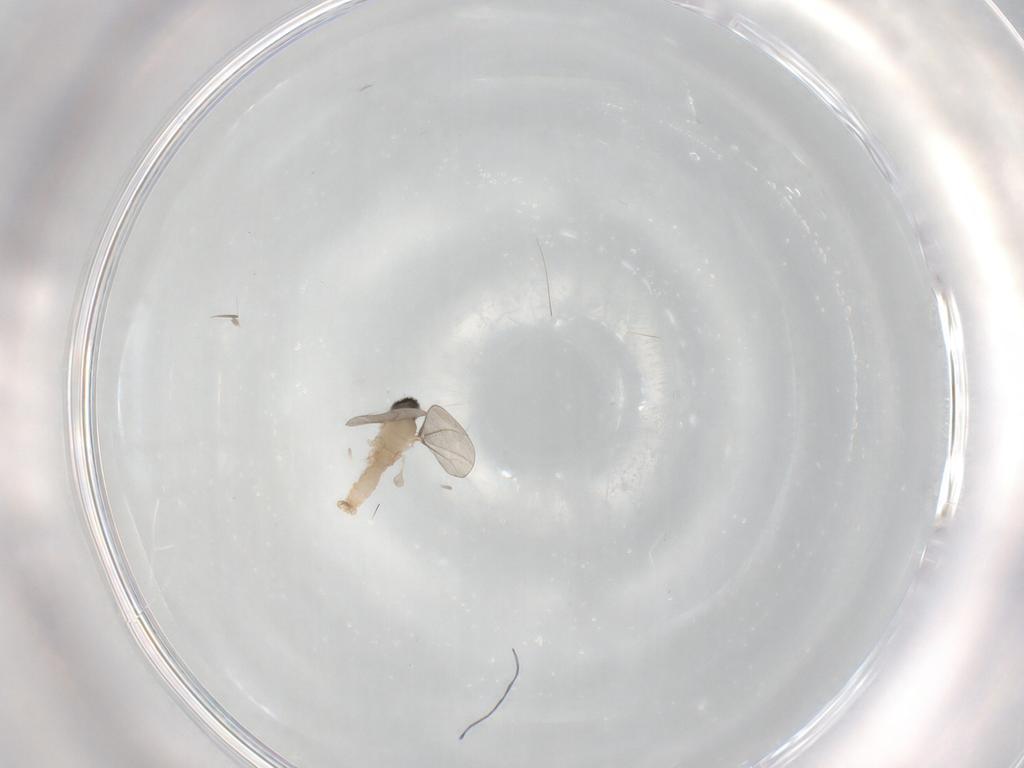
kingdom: Animalia
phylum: Arthropoda
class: Insecta
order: Diptera
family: Cecidomyiidae
